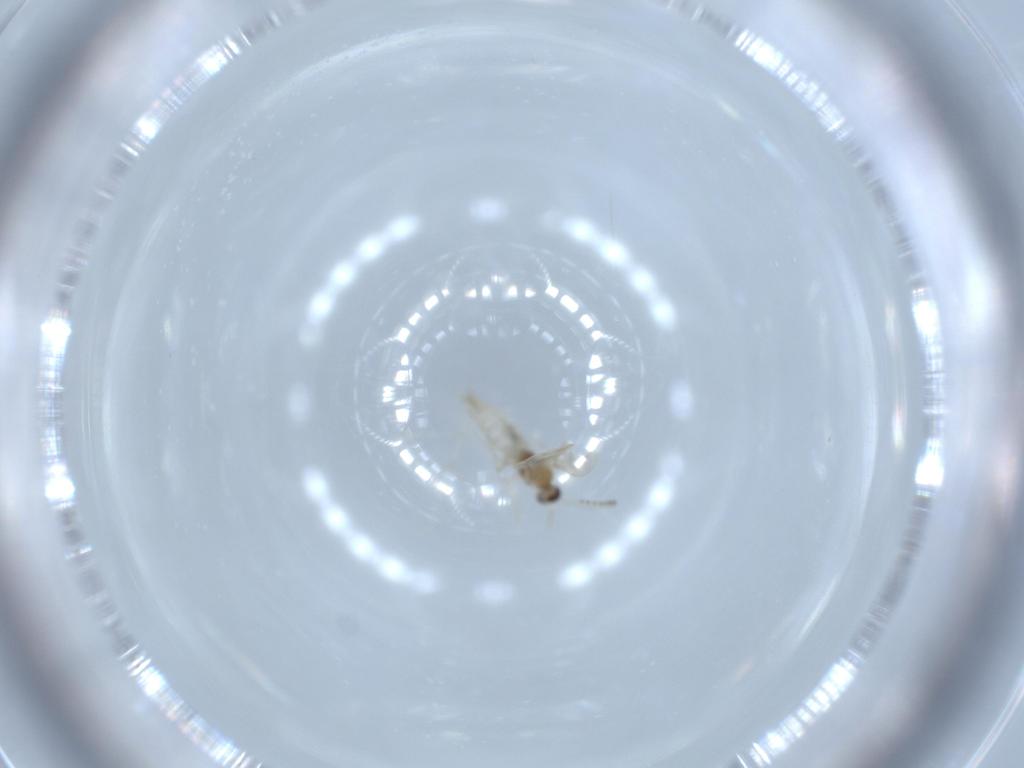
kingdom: Animalia
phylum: Arthropoda
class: Insecta
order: Diptera
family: Cecidomyiidae
